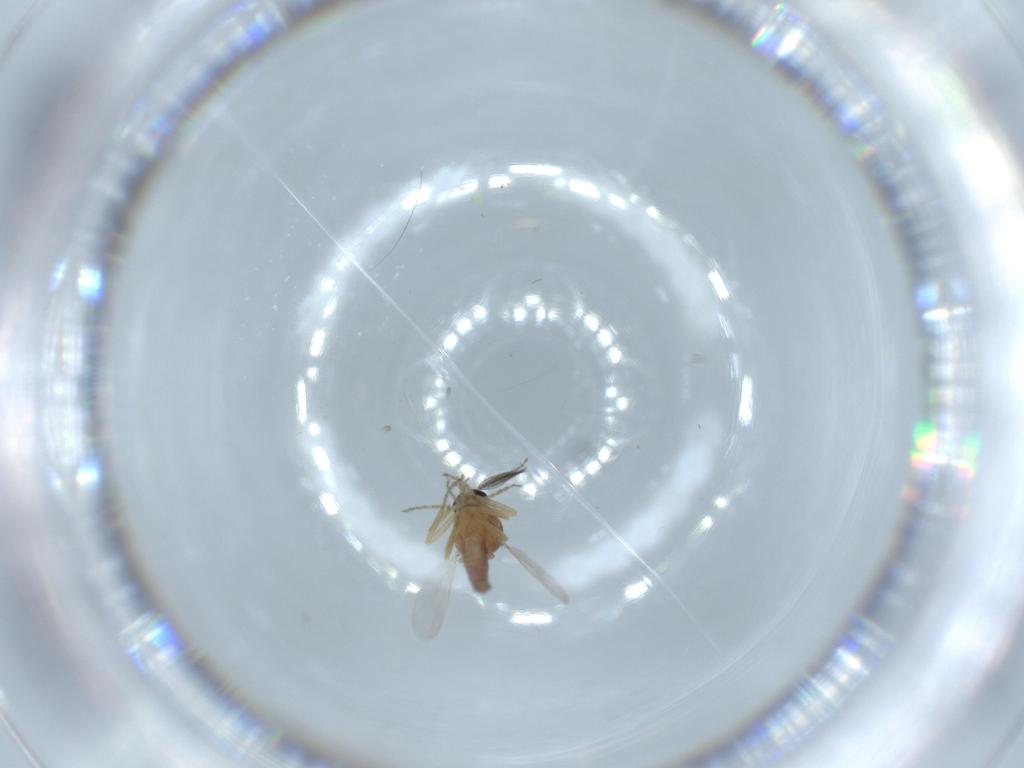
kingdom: Animalia
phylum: Arthropoda
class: Insecta
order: Diptera
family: Ceratopogonidae
